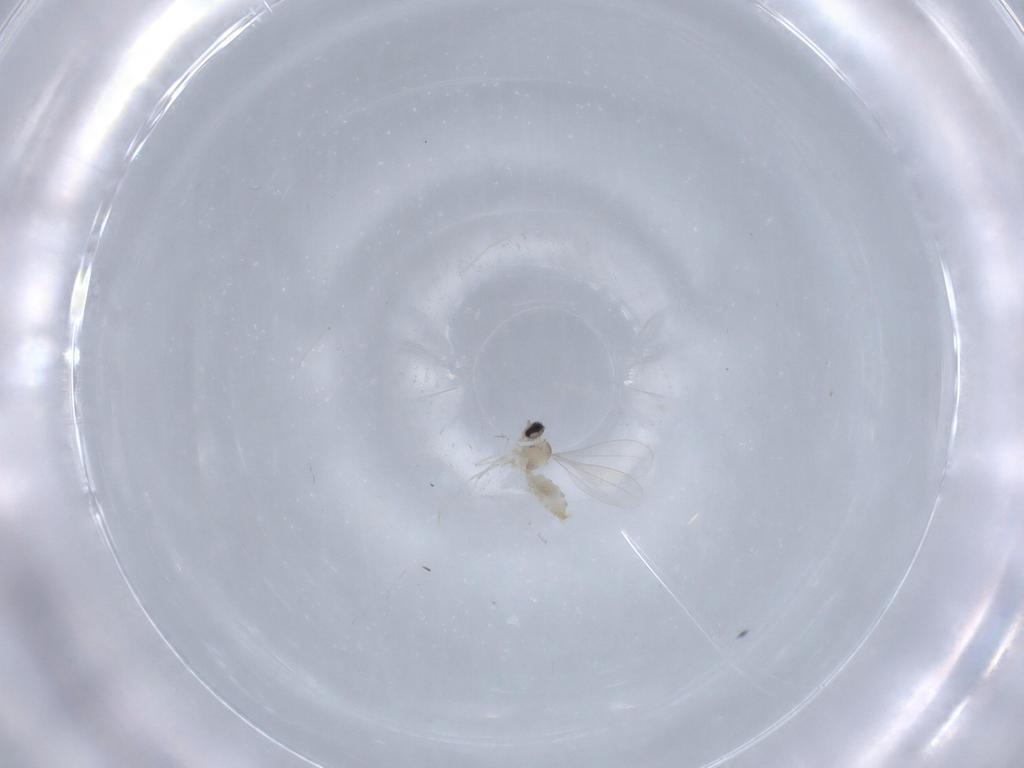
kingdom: Animalia
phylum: Arthropoda
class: Insecta
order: Diptera
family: Cecidomyiidae
